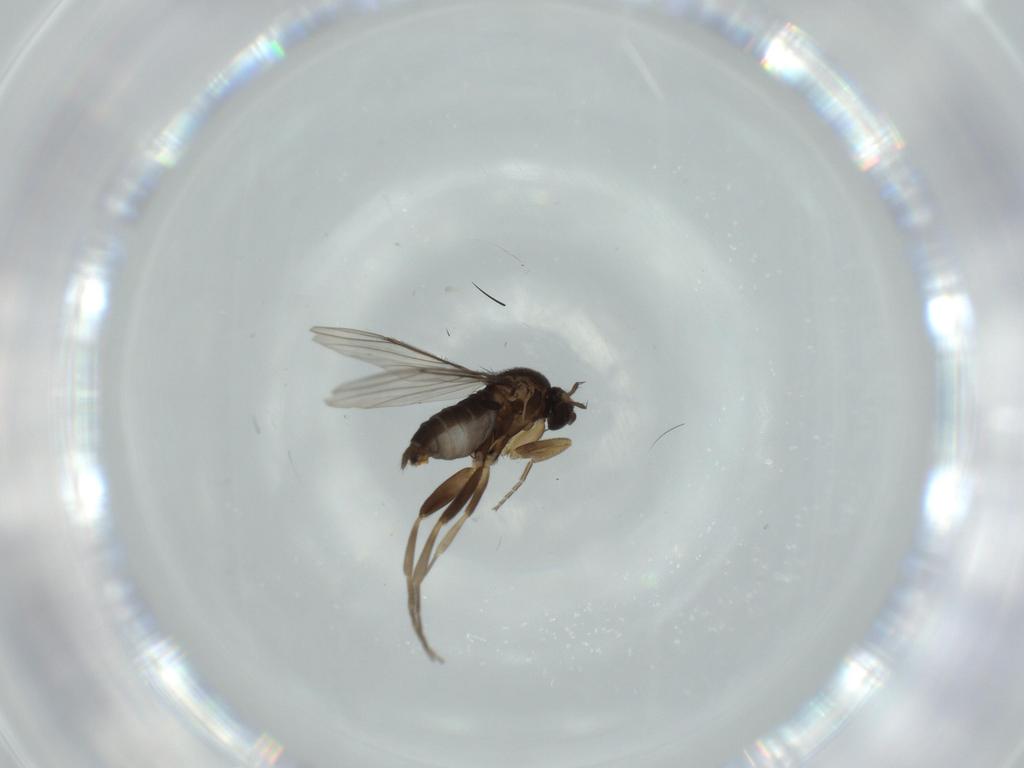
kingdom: Animalia
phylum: Arthropoda
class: Insecta
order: Diptera
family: Phoridae
